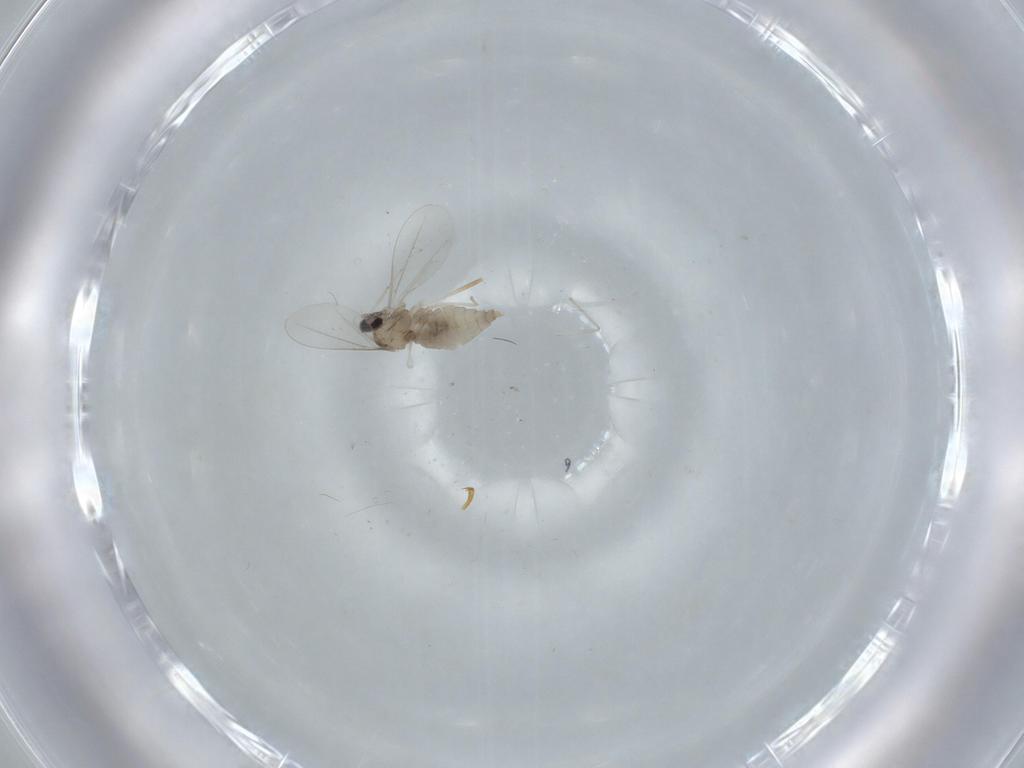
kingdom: Animalia
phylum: Arthropoda
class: Insecta
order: Diptera
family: Cecidomyiidae
